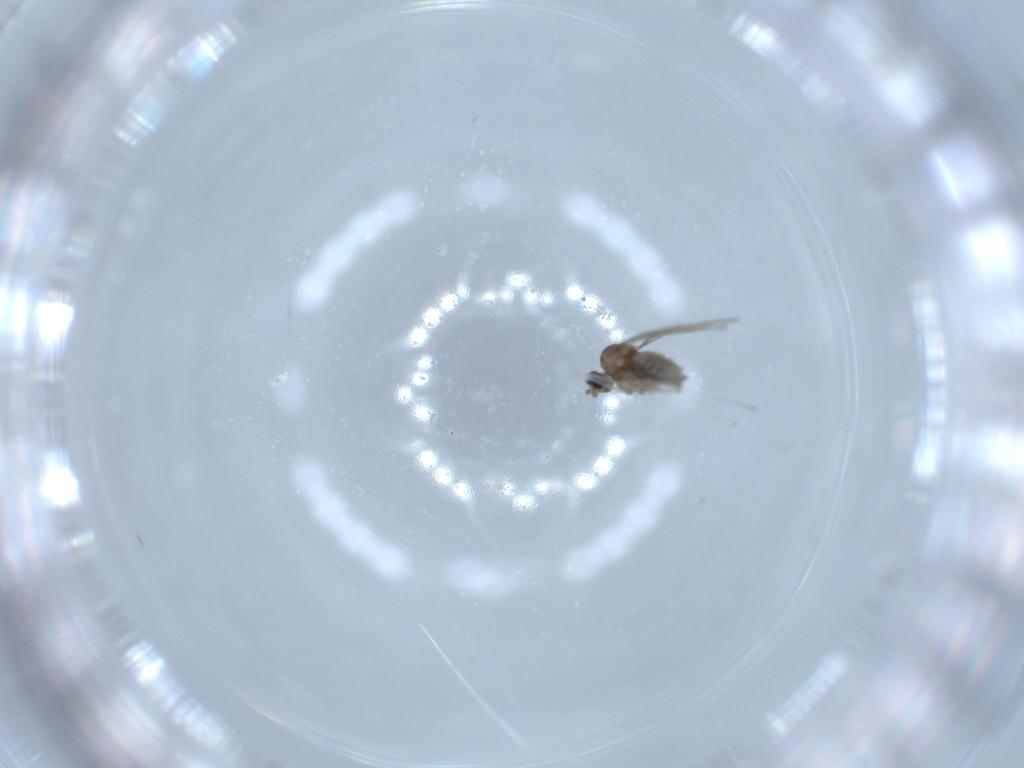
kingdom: Animalia
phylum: Arthropoda
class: Insecta
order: Diptera
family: Cecidomyiidae
